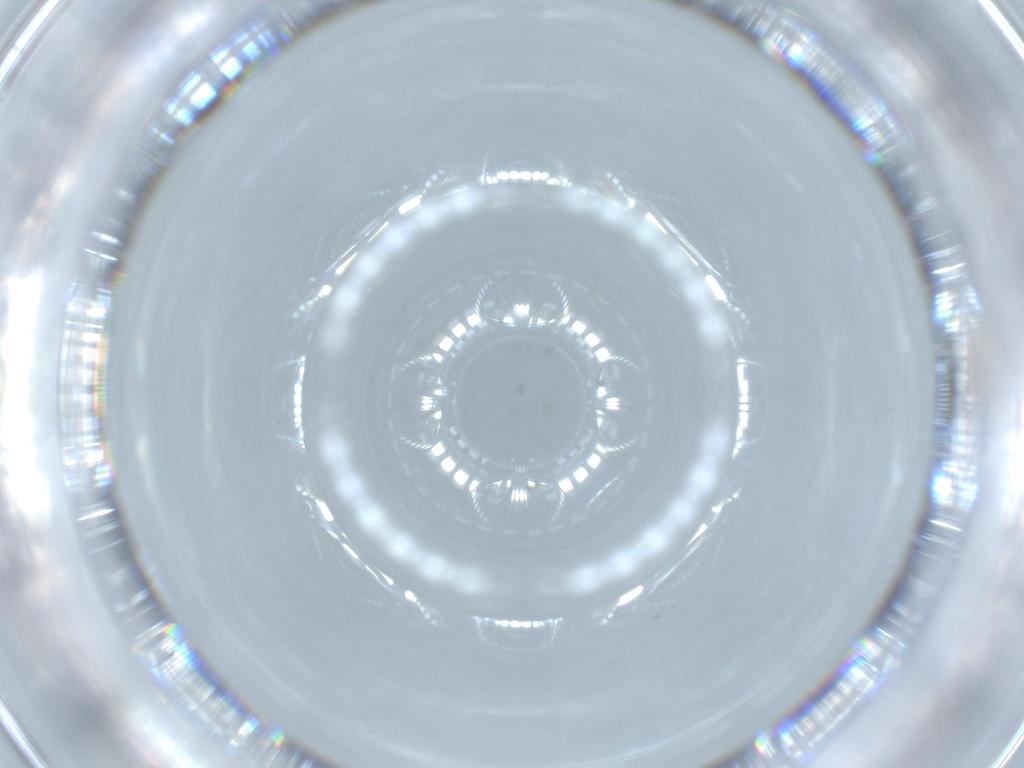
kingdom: Animalia
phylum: Arthropoda
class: Insecta
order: Diptera
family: Cecidomyiidae
